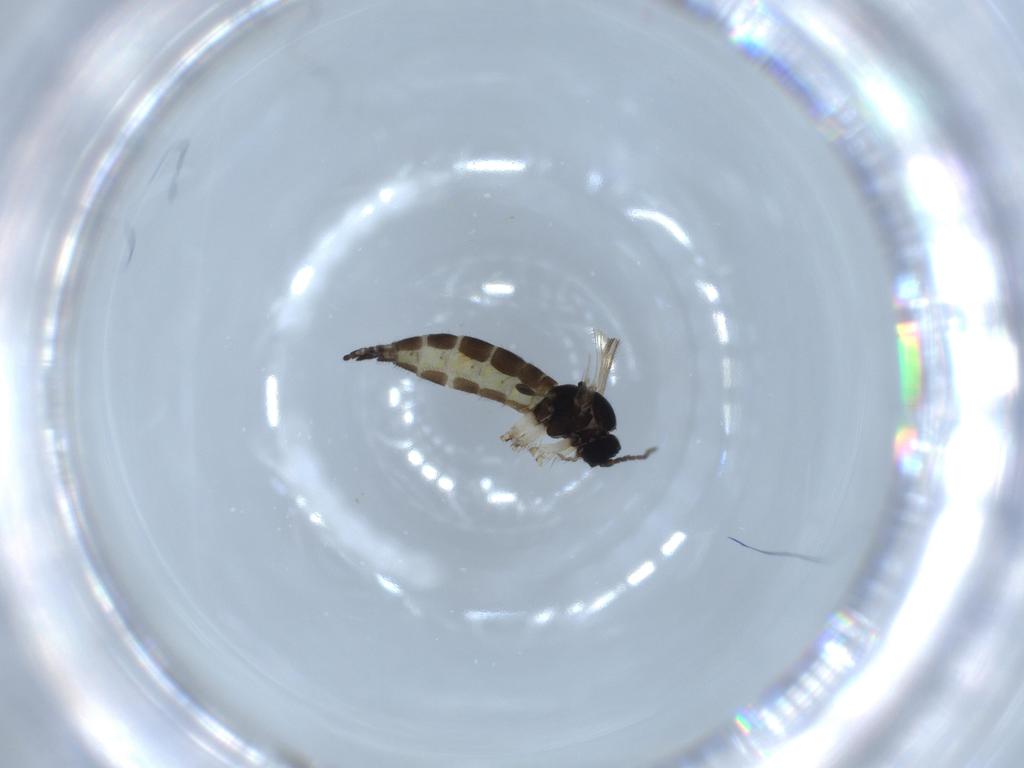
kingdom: Animalia
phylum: Arthropoda
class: Insecta
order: Diptera
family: Sciaridae
